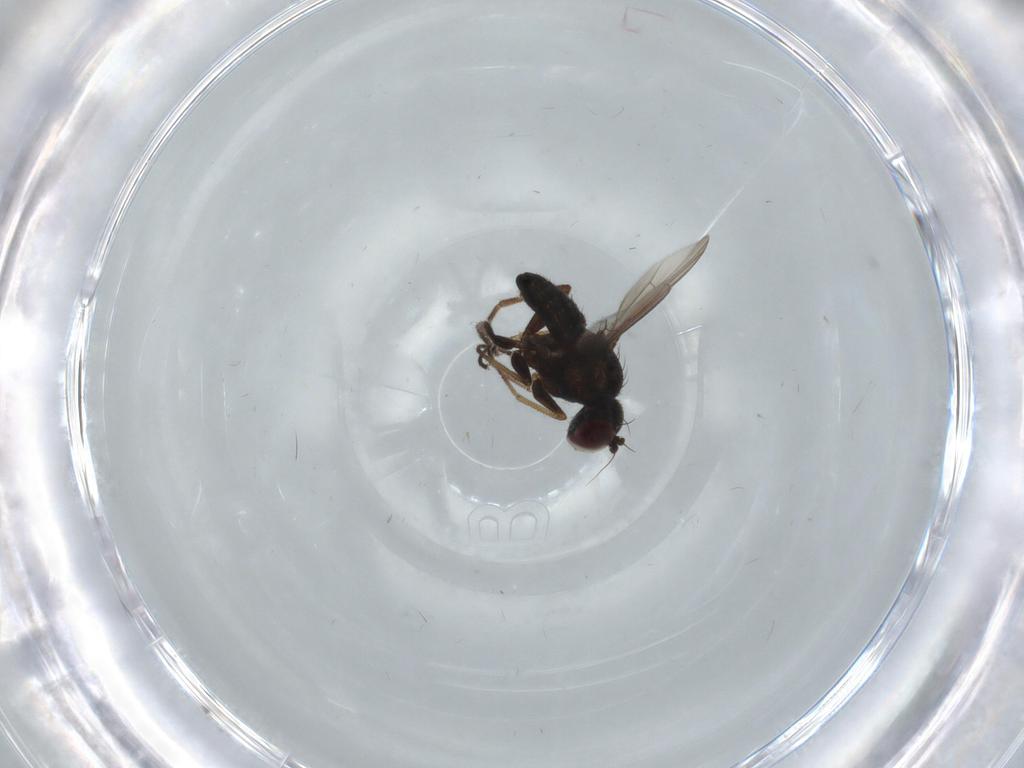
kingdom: Animalia
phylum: Arthropoda
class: Insecta
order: Diptera
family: Dolichopodidae
